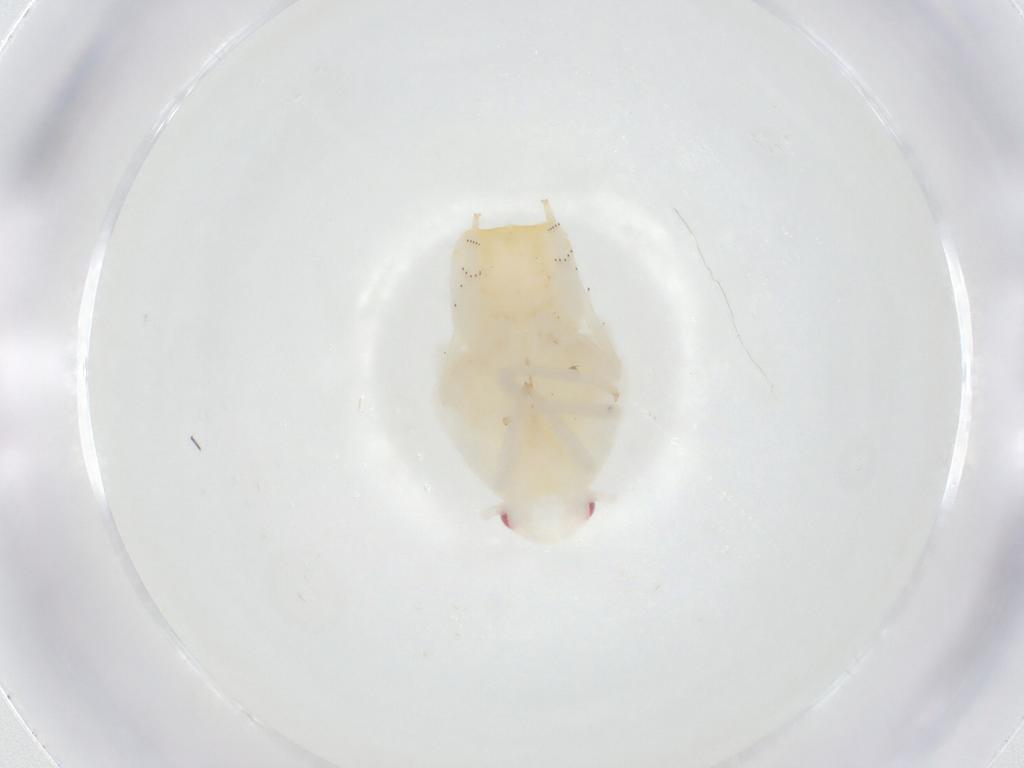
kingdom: Animalia
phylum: Arthropoda
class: Insecta
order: Hemiptera
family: Flatidae
